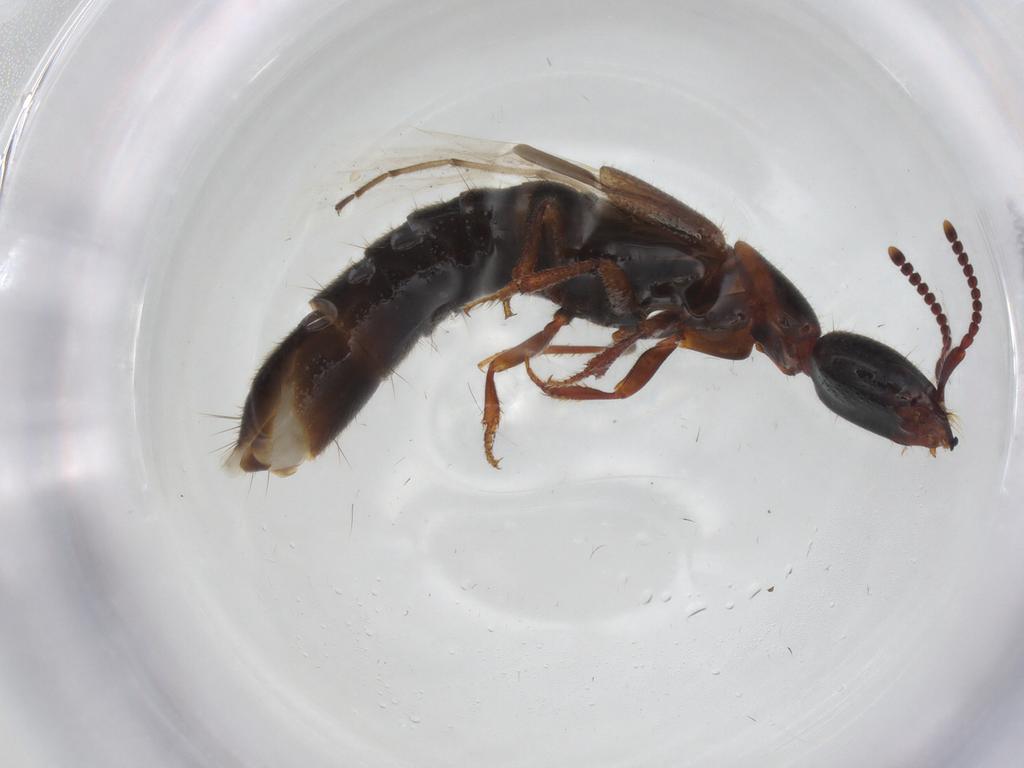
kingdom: Animalia
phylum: Arthropoda
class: Insecta
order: Coleoptera
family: Staphylinidae
